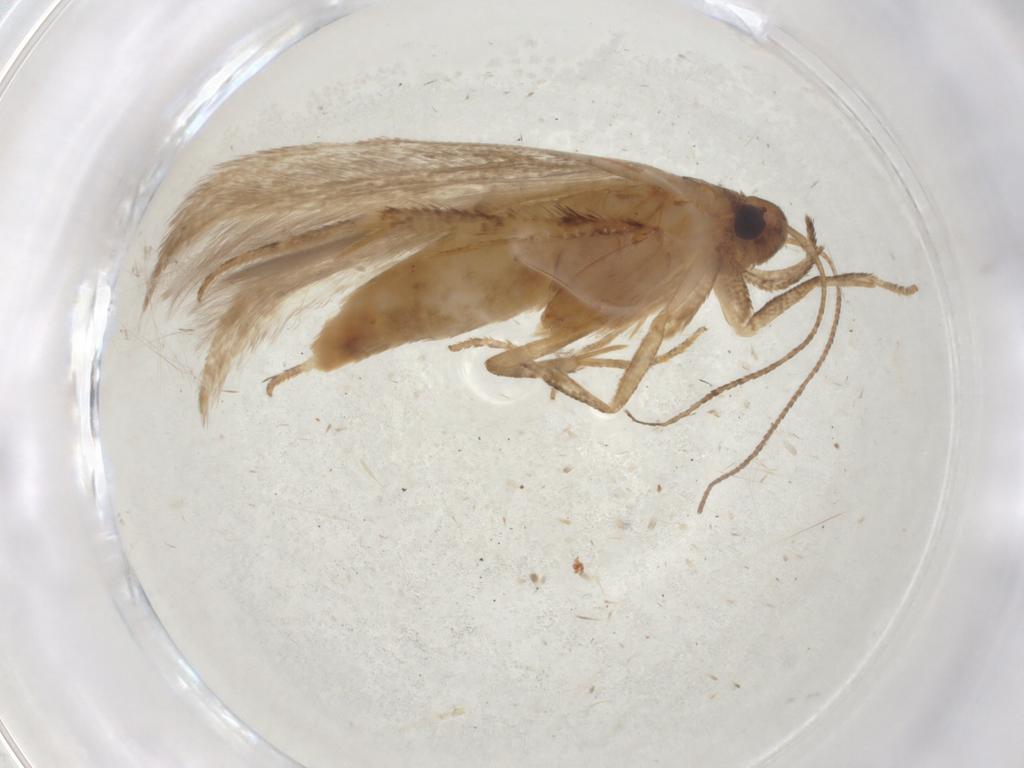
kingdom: Animalia
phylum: Arthropoda
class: Insecta
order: Lepidoptera
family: Cosmopterigidae
